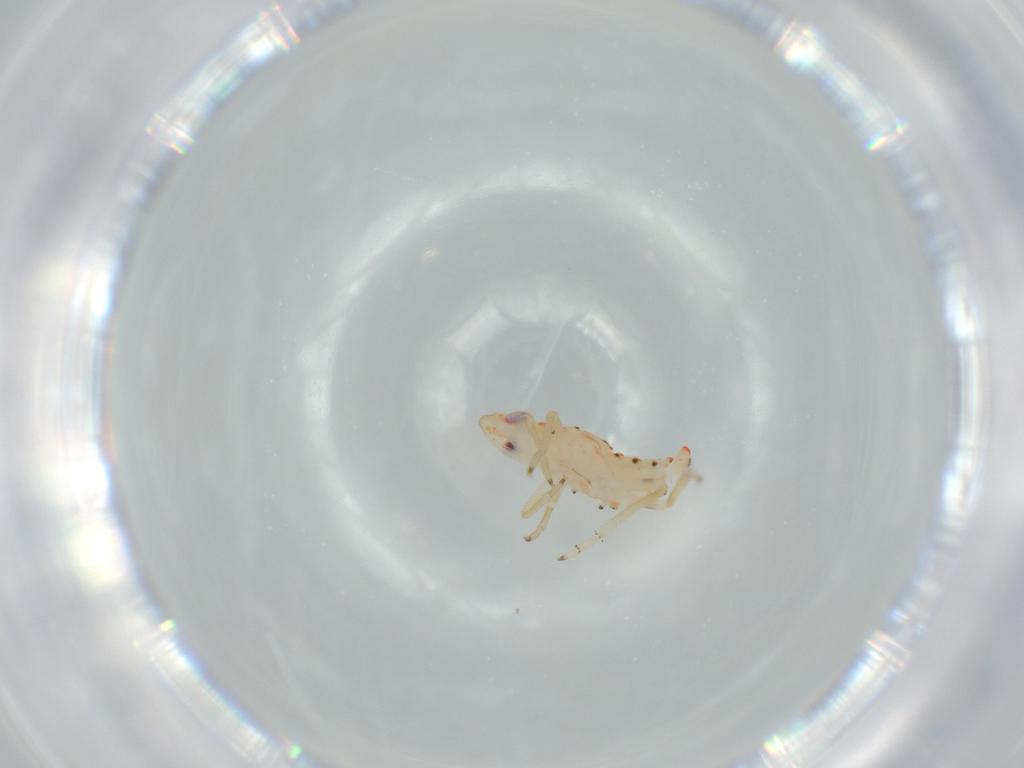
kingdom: Animalia
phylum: Arthropoda
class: Insecta
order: Hemiptera
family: Tropiduchidae
